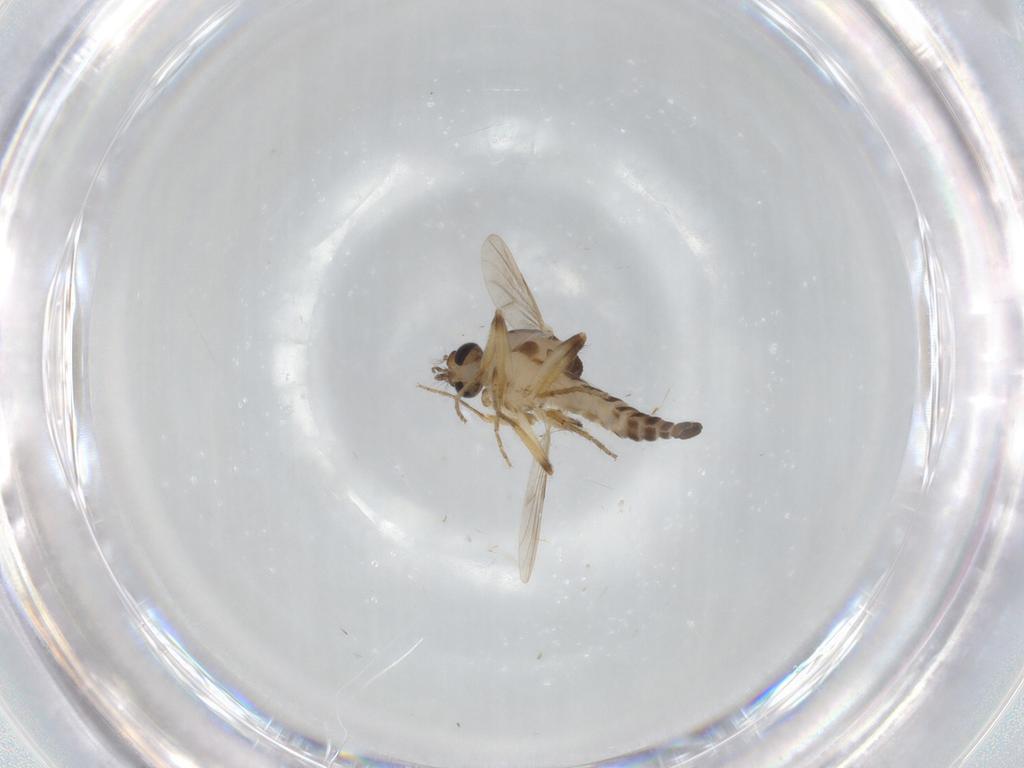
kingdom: Animalia
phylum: Arthropoda
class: Insecta
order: Diptera
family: Ceratopogonidae
